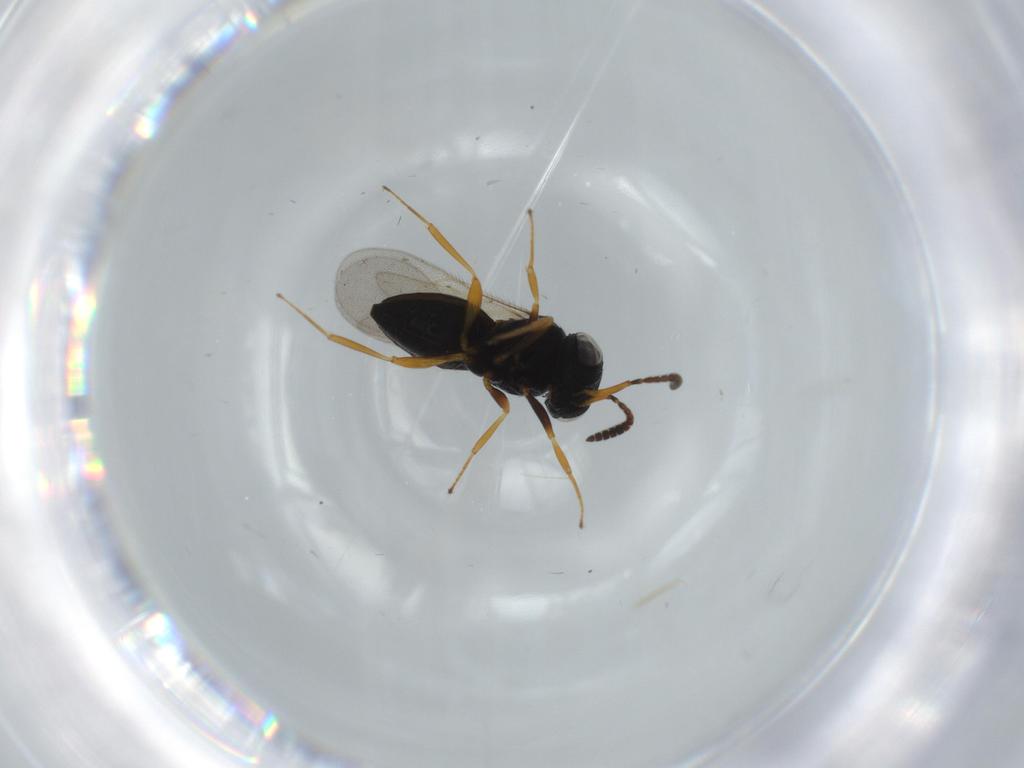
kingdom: Animalia
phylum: Arthropoda
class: Insecta
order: Hymenoptera
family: Scelionidae
